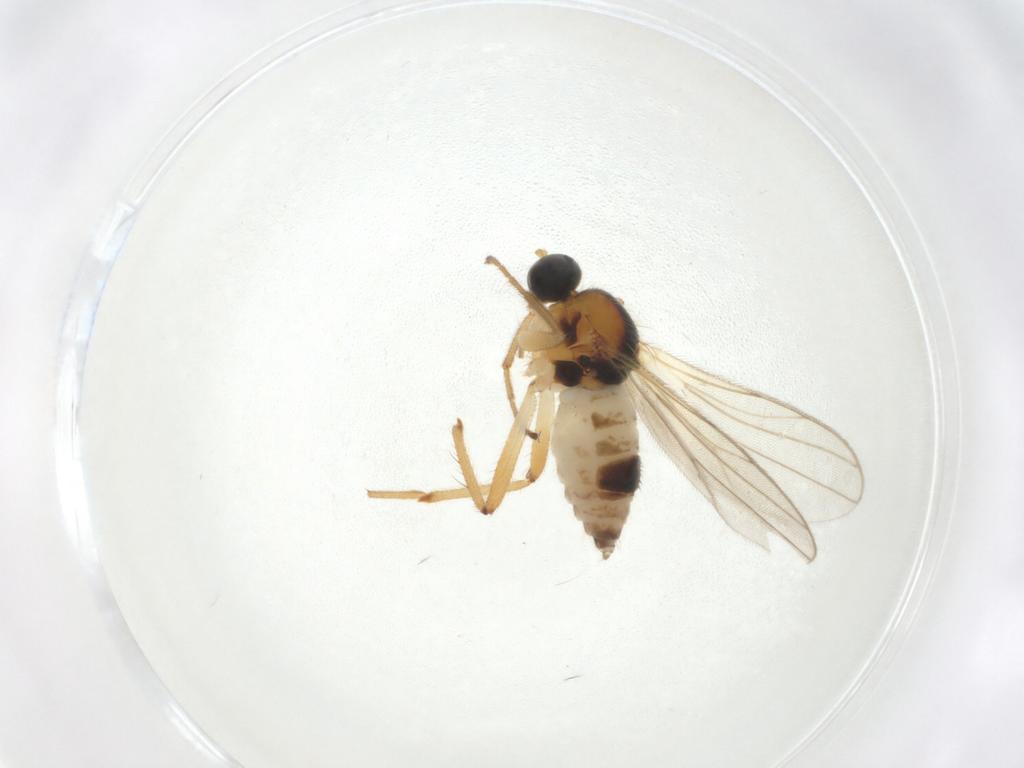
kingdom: Animalia
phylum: Arthropoda
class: Insecta
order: Diptera
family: Hybotidae
